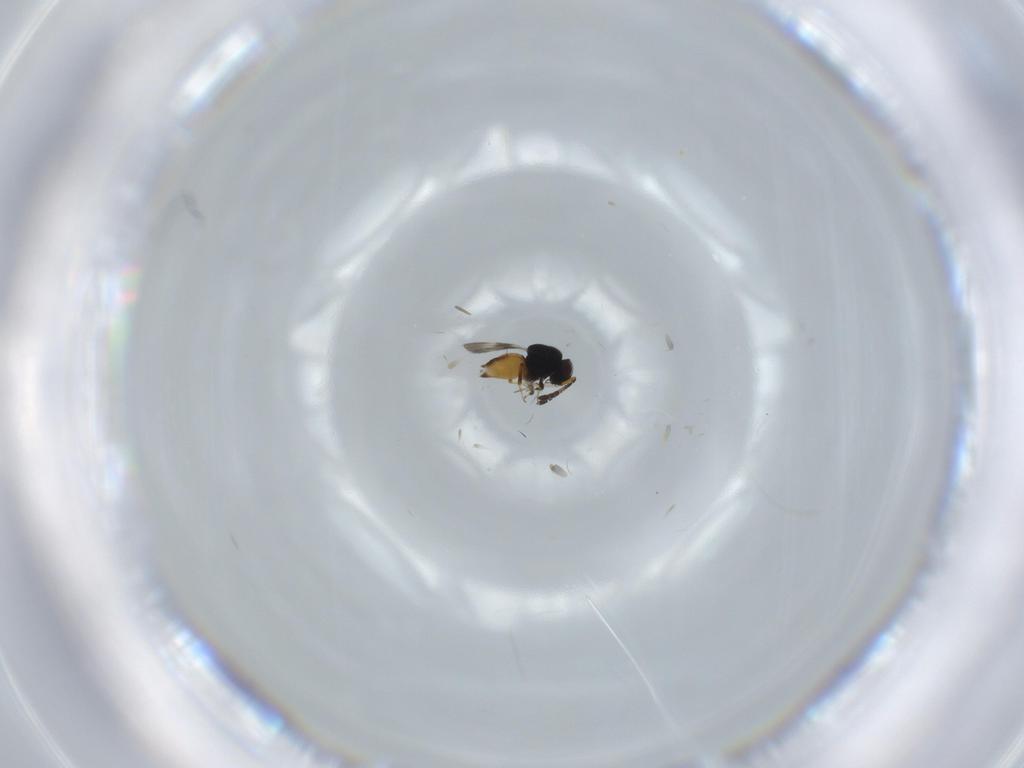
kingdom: Animalia
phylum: Arthropoda
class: Insecta
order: Hymenoptera
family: Ceraphronidae
